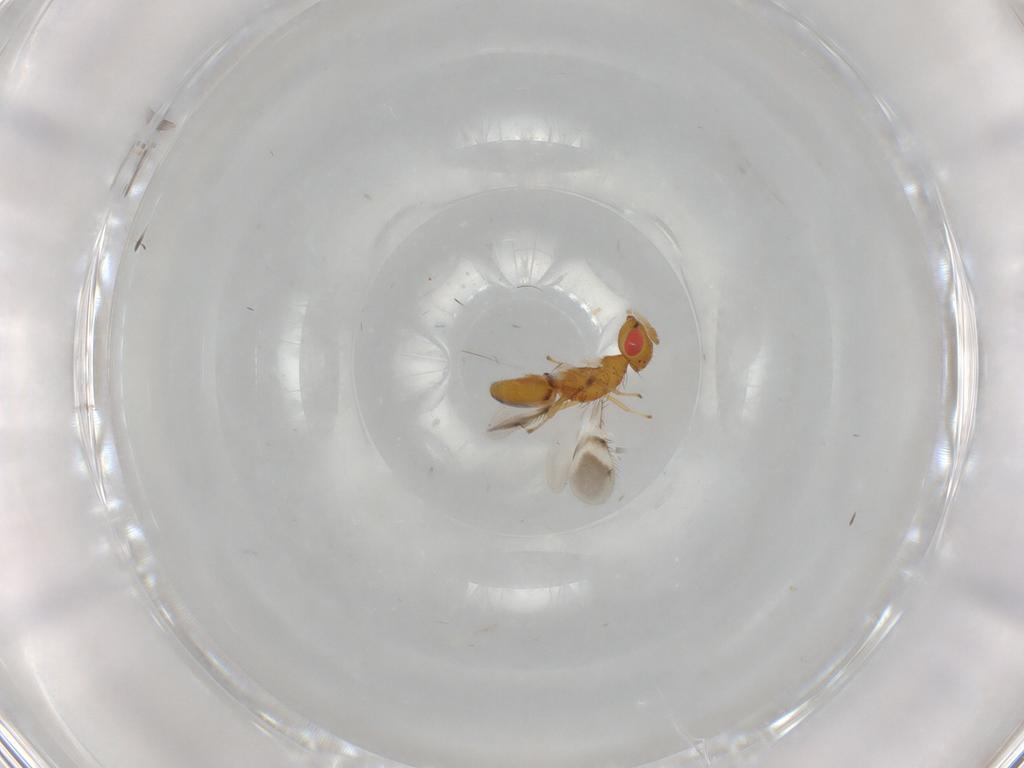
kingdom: Animalia
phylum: Arthropoda
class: Insecta
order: Hymenoptera
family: Eulophidae
